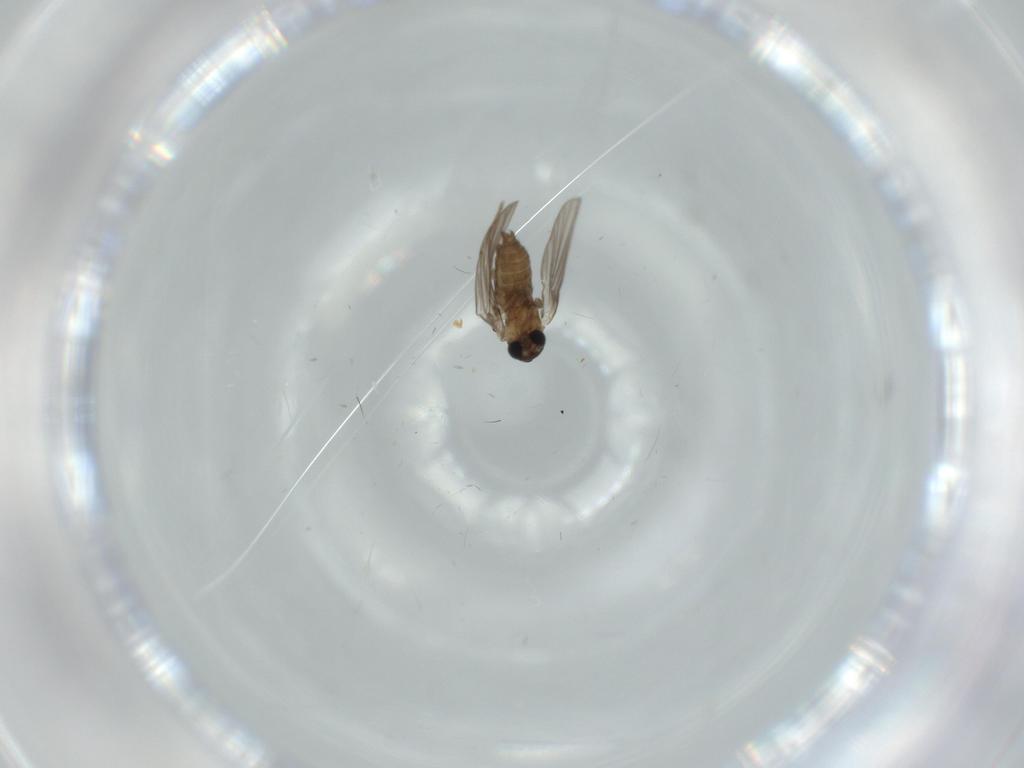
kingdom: Animalia
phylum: Arthropoda
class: Insecta
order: Diptera
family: Psychodidae
